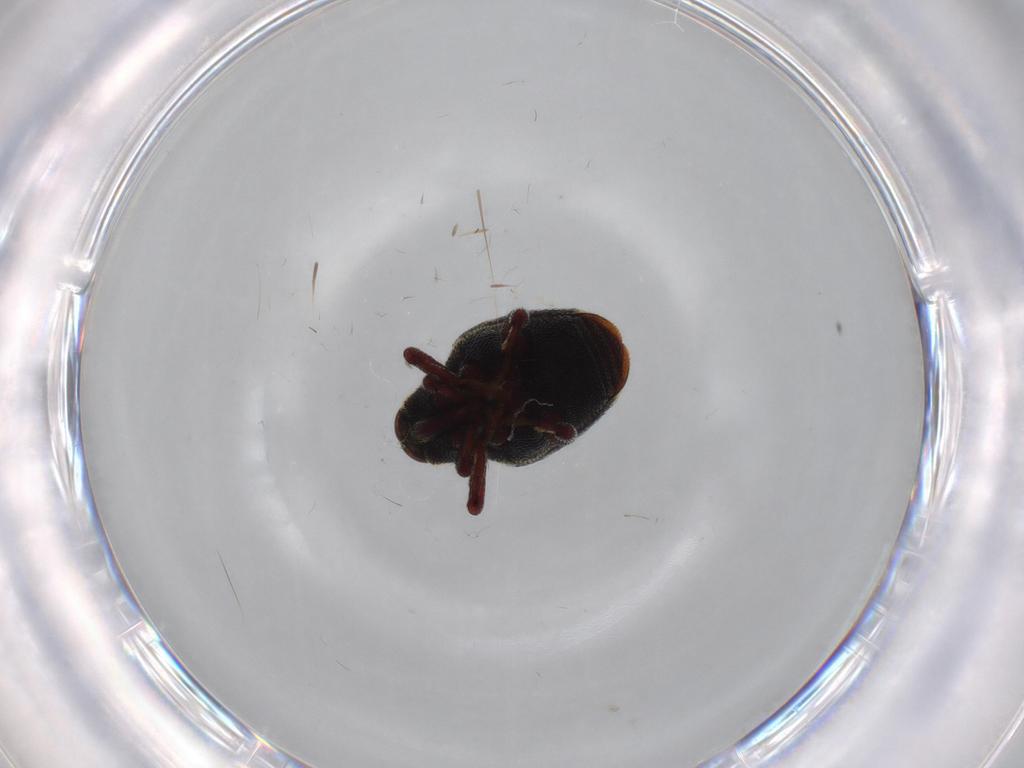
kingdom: Animalia
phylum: Arthropoda
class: Insecta
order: Coleoptera
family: Curculionidae
